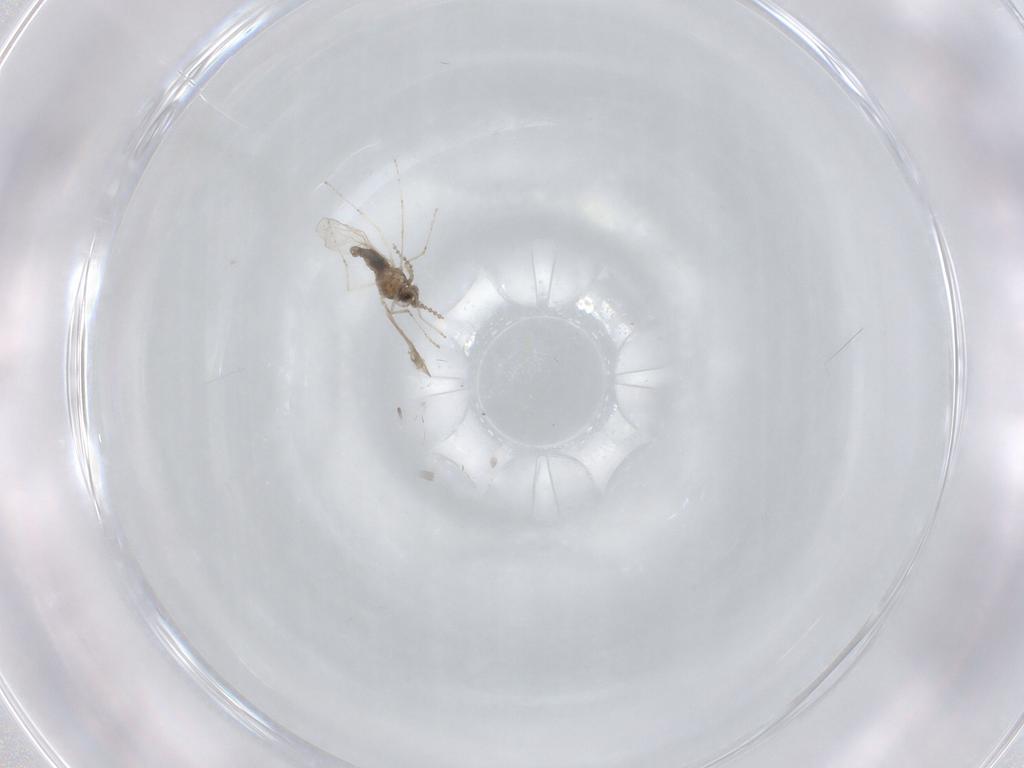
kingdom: Animalia
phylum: Arthropoda
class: Insecta
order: Diptera
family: Cecidomyiidae
